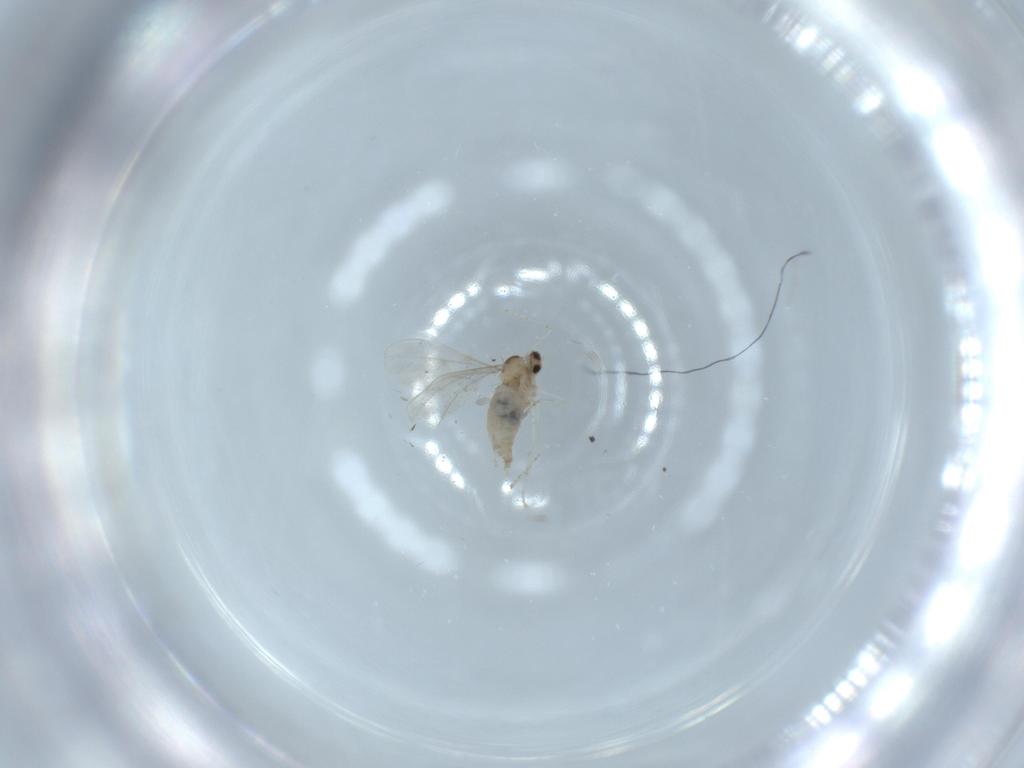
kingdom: Animalia
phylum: Arthropoda
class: Insecta
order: Diptera
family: Cecidomyiidae
